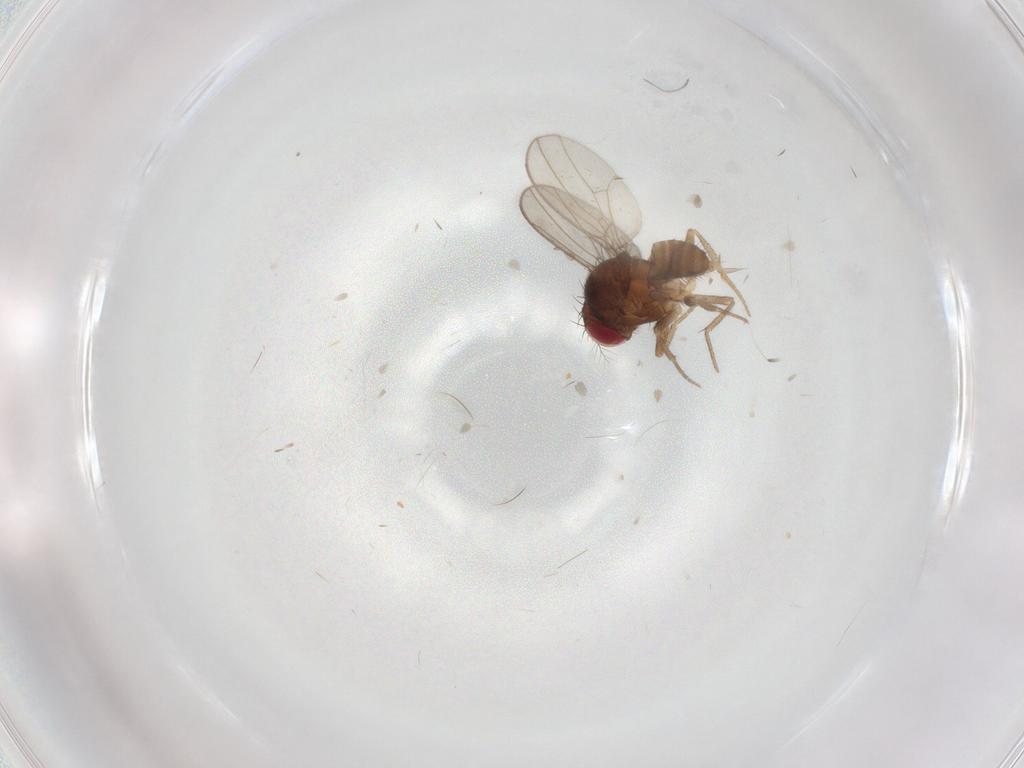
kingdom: Animalia
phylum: Arthropoda
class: Insecta
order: Diptera
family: Drosophilidae
